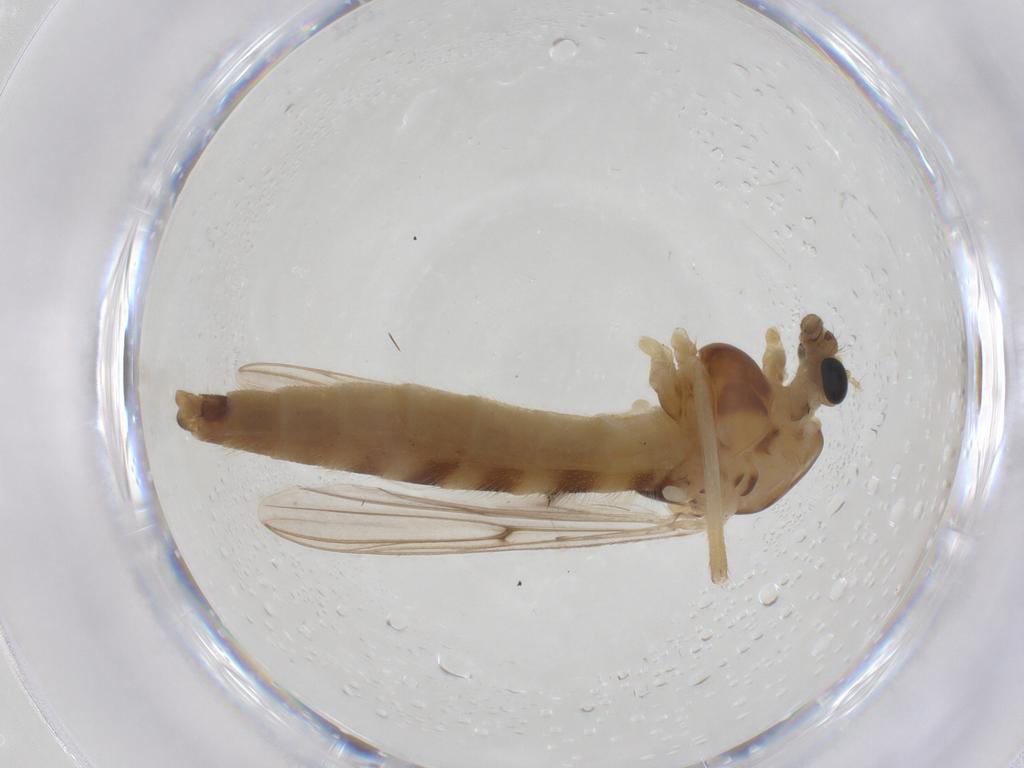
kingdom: Animalia
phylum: Arthropoda
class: Insecta
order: Diptera
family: Chironomidae
